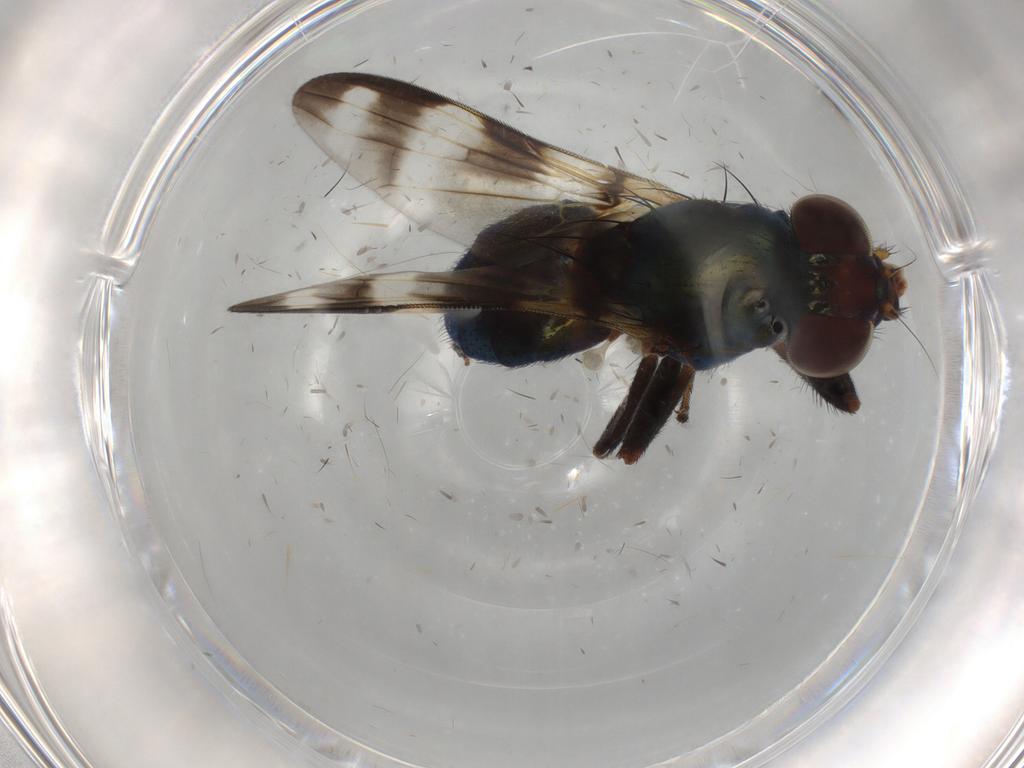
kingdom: Animalia
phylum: Arthropoda
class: Insecta
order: Diptera
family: Ulidiidae
